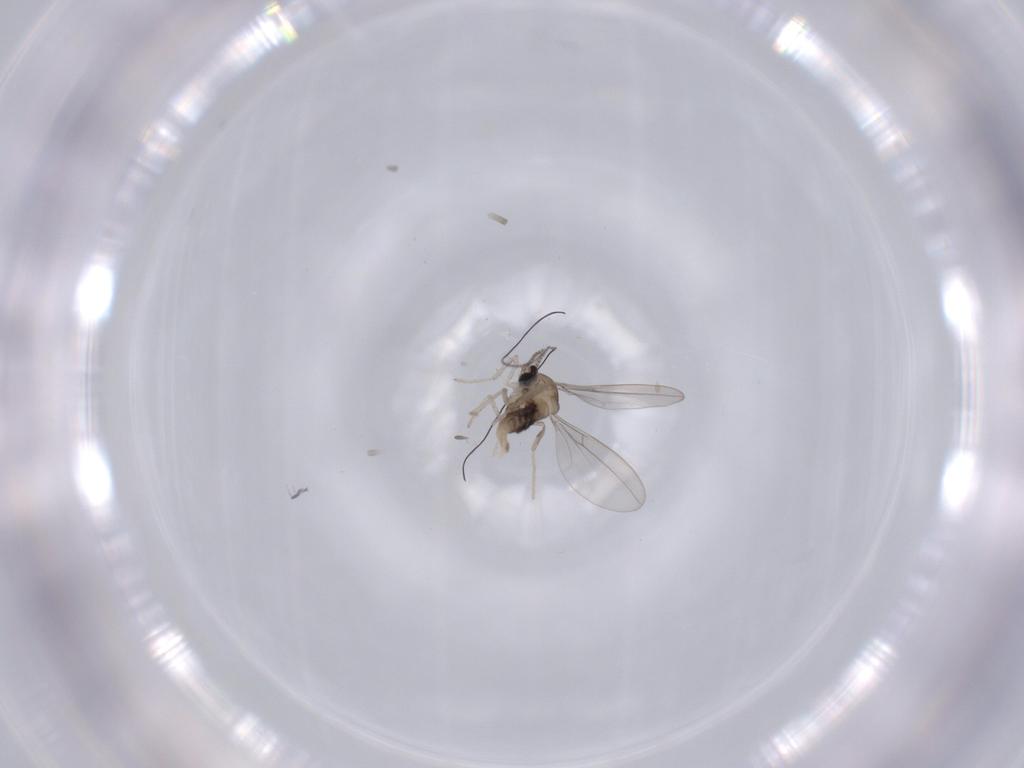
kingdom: Animalia
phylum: Arthropoda
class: Insecta
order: Diptera
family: Cecidomyiidae
